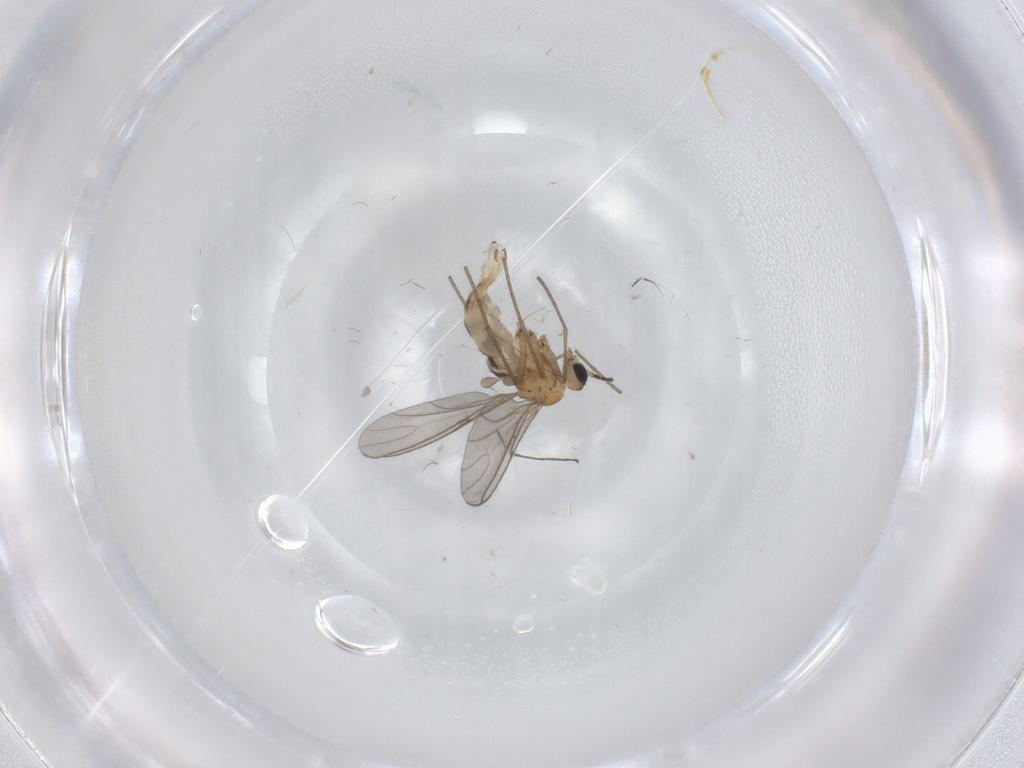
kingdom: Animalia
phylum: Arthropoda
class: Insecta
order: Diptera
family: Sciaridae
